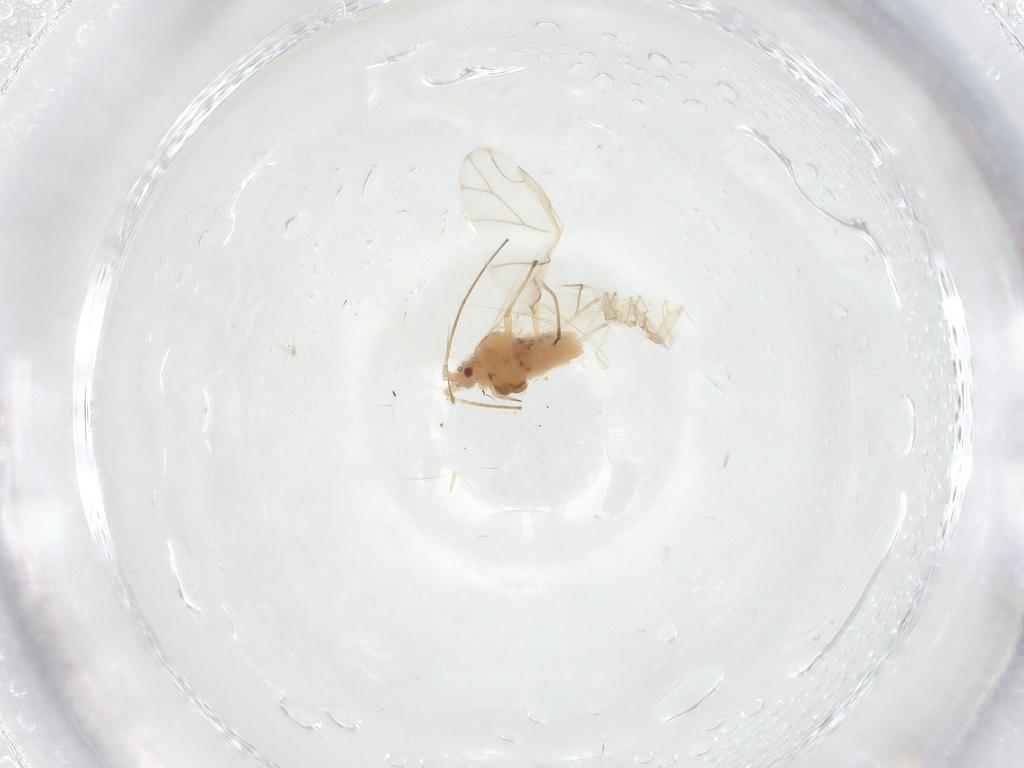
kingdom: Animalia
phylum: Arthropoda
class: Insecta
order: Hemiptera
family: Aphididae
